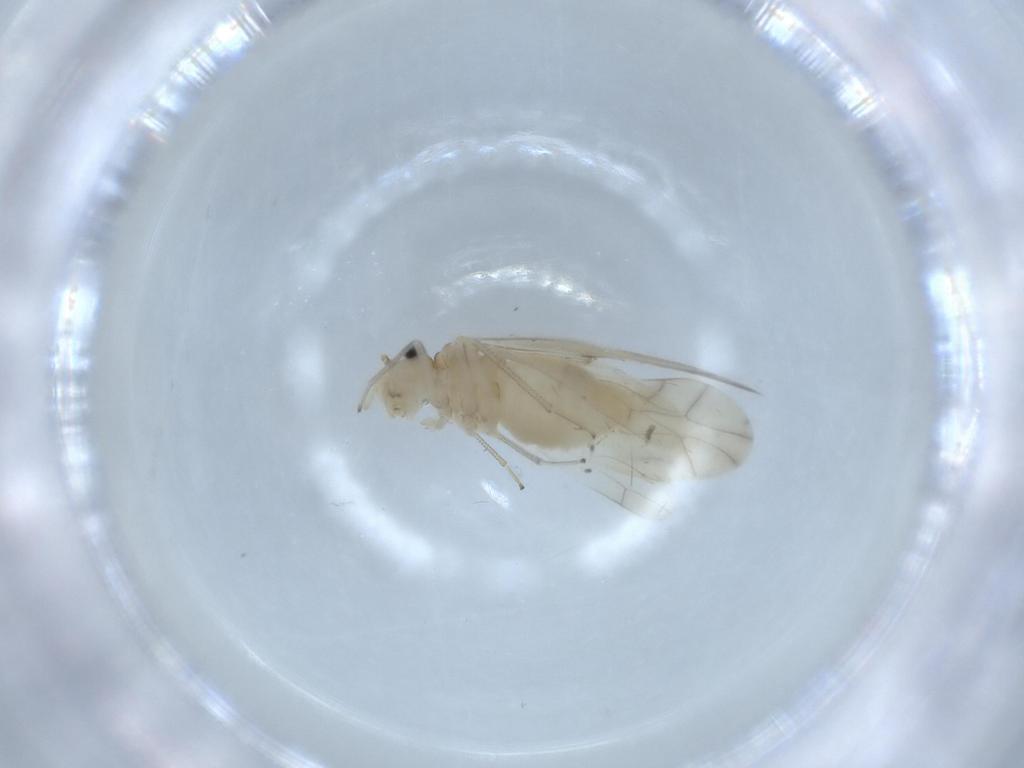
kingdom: Animalia
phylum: Arthropoda
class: Insecta
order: Psocodea
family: Caeciliusidae
